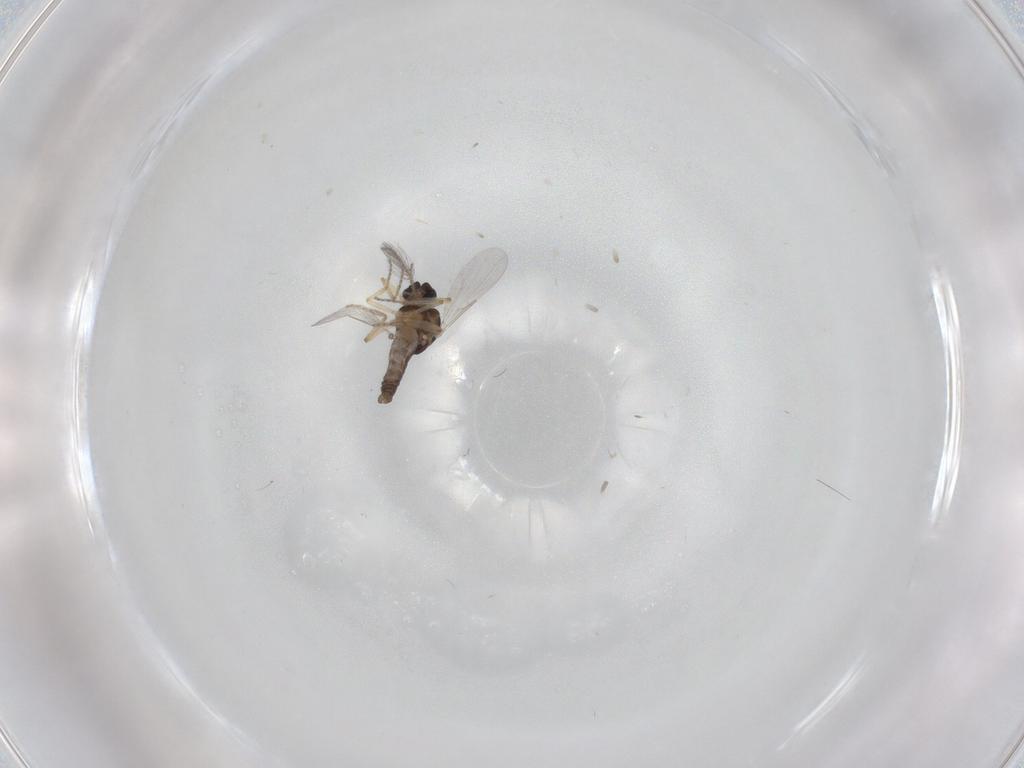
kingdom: Animalia
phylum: Arthropoda
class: Insecta
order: Diptera
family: Ceratopogonidae
